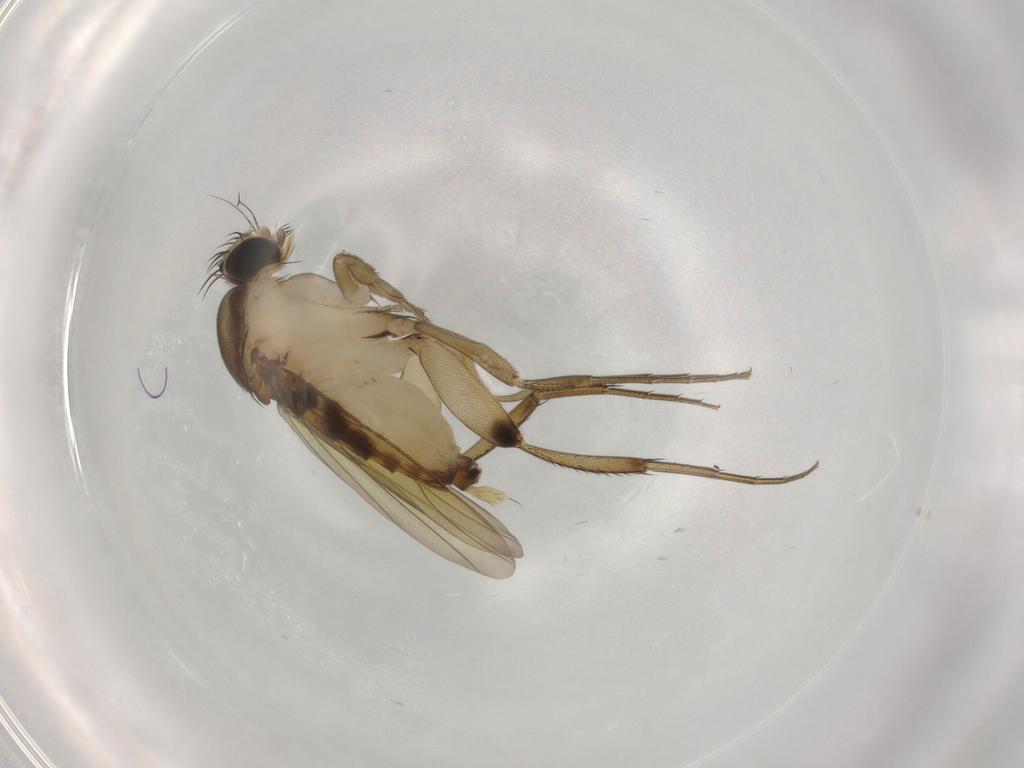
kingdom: Animalia
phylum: Arthropoda
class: Insecta
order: Diptera
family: Phoridae
